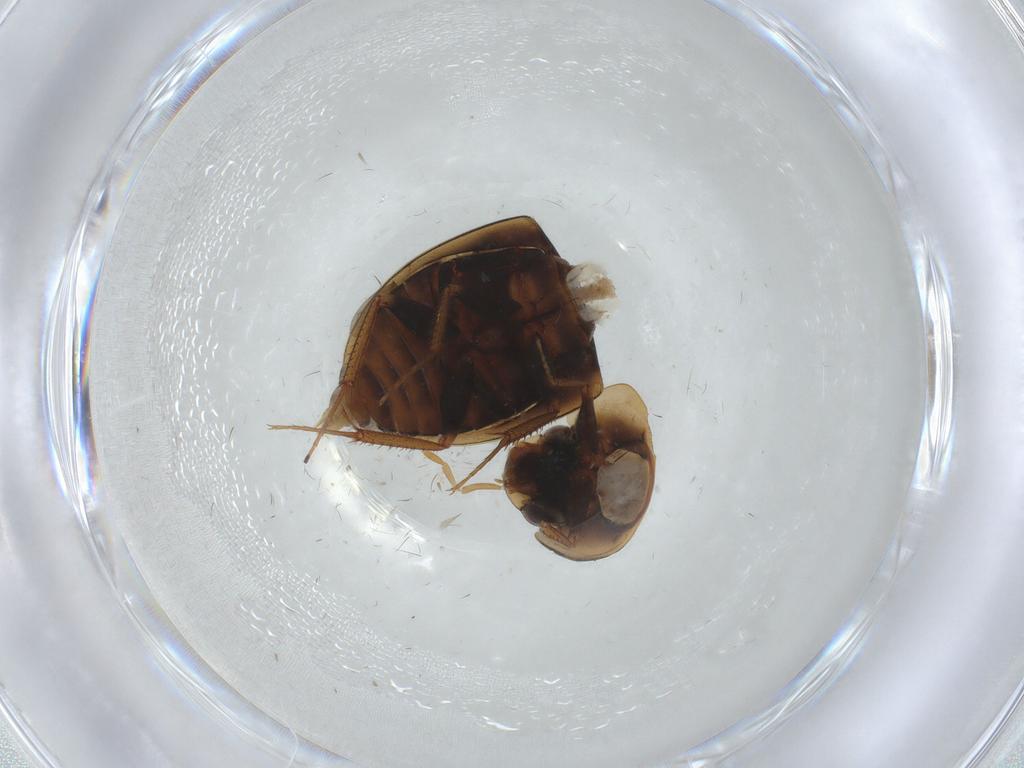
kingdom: Animalia
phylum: Arthropoda
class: Insecta
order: Coleoptera
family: Hydrophilidae
